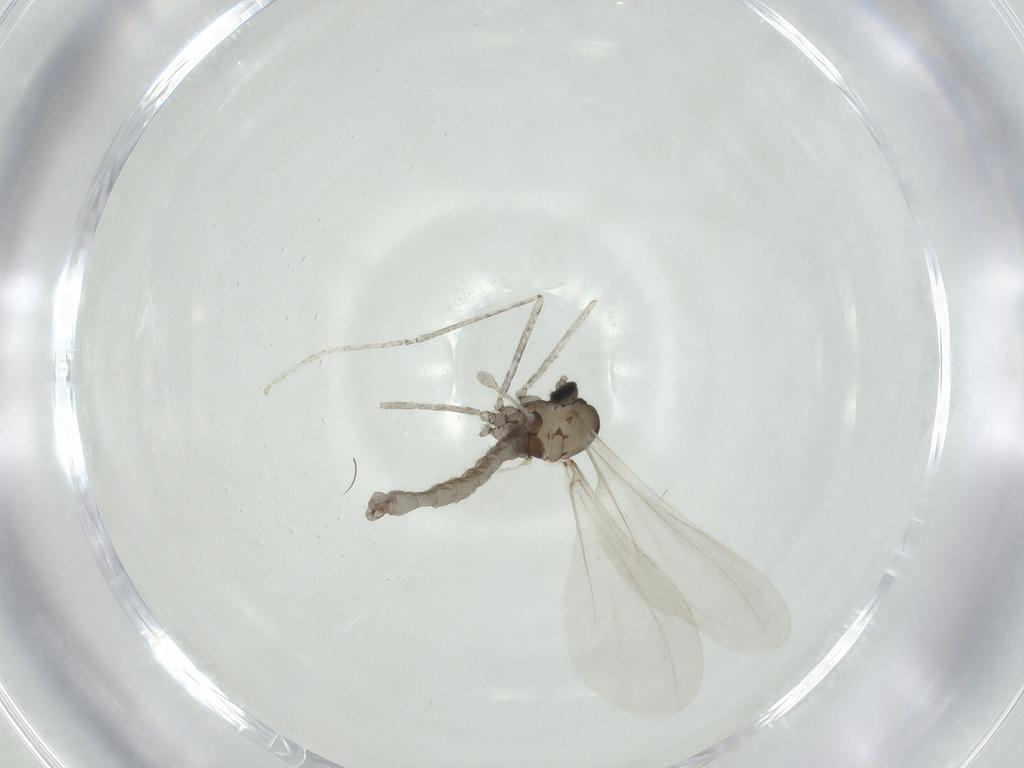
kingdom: Animalia
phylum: Arthropoda
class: Insecta
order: Diptera
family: Cecidomyiidae
